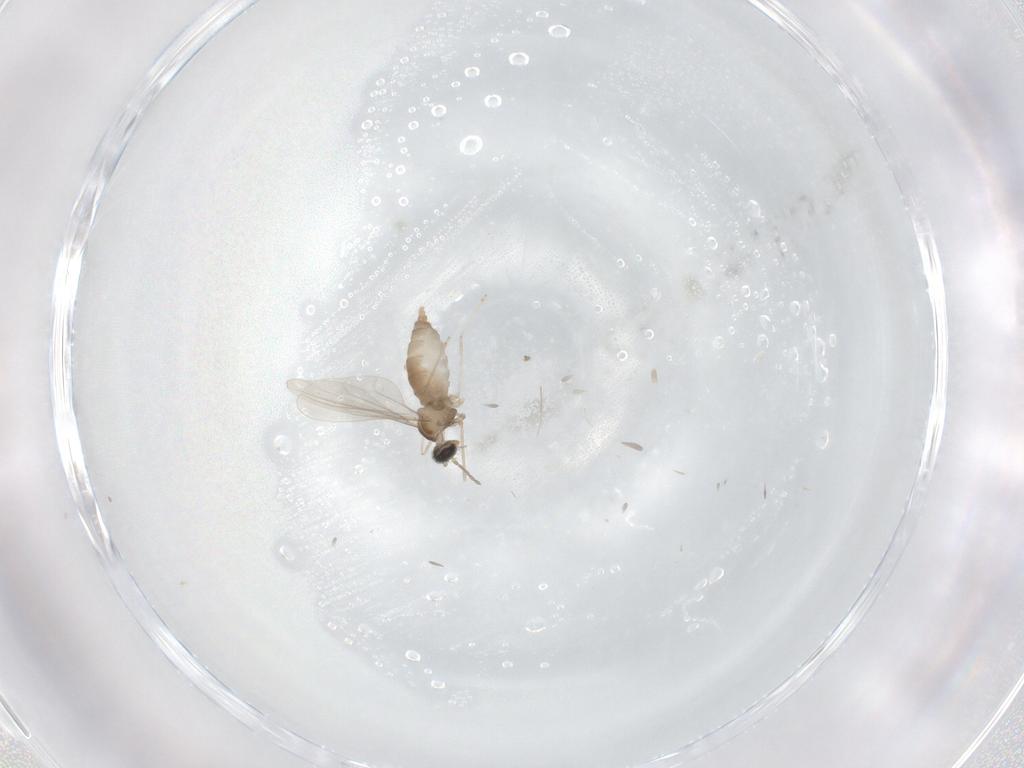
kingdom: Animalia
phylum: Arthropoda
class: Insecta
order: Diptera
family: Cecidomyiidae
